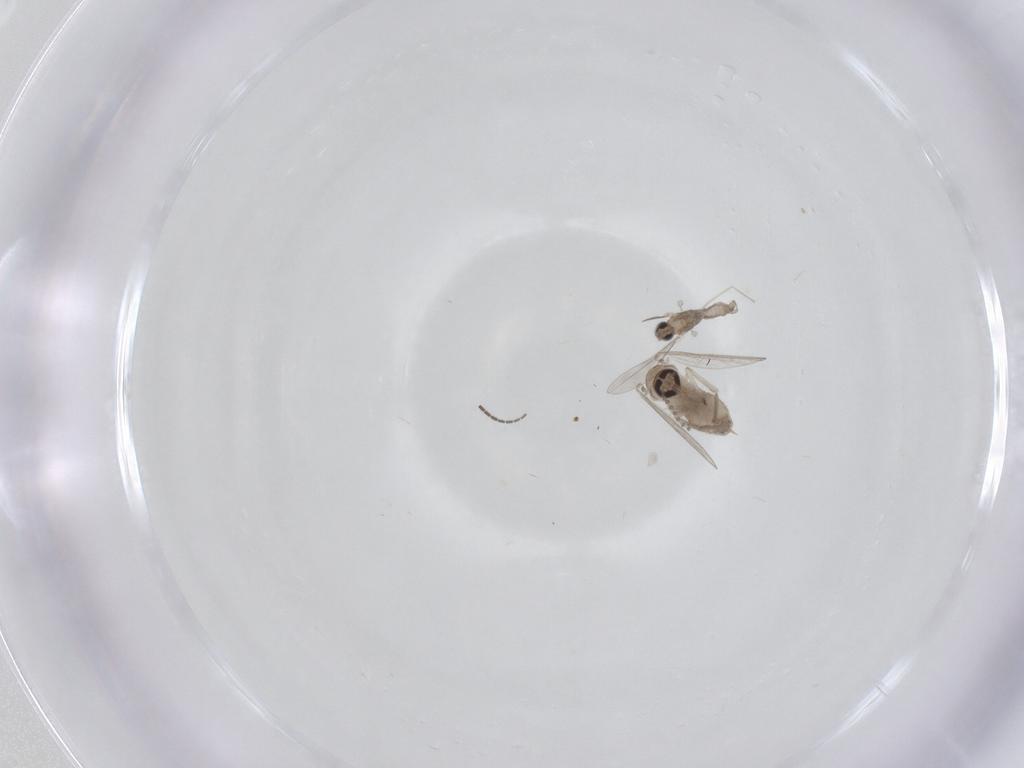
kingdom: Animalia
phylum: Arthropoda
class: Insecta
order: Diptera
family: Psychodidae
